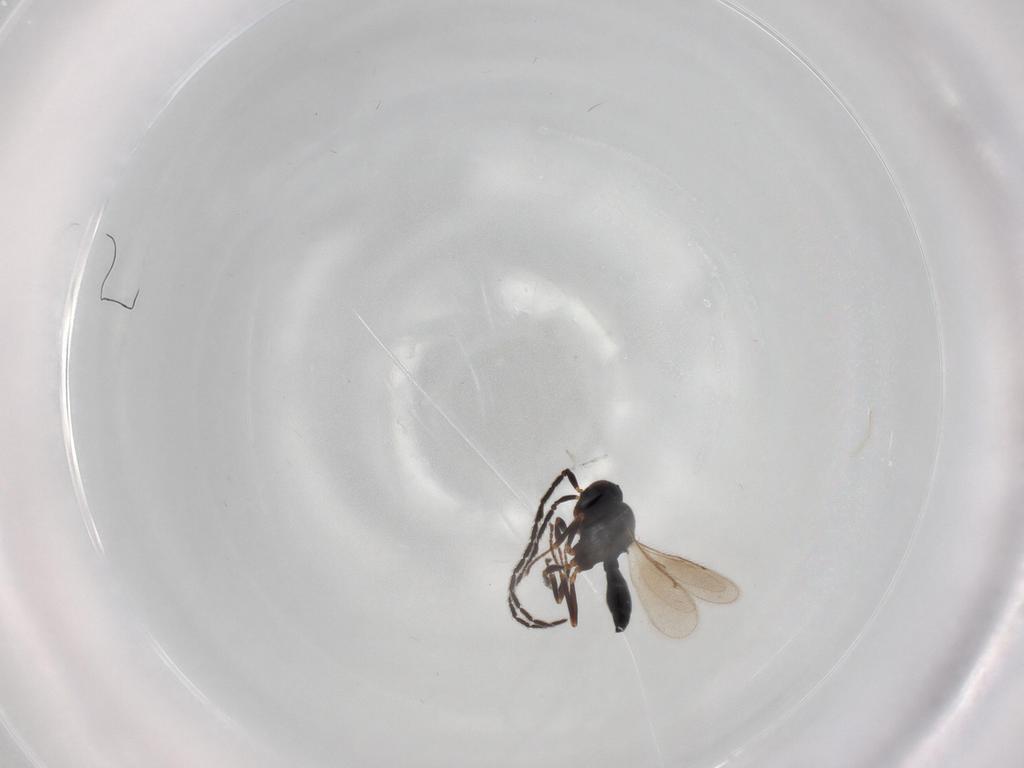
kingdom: Animalia
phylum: Arthropoda
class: Insecta
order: Hymenoptera
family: Scelionidae
